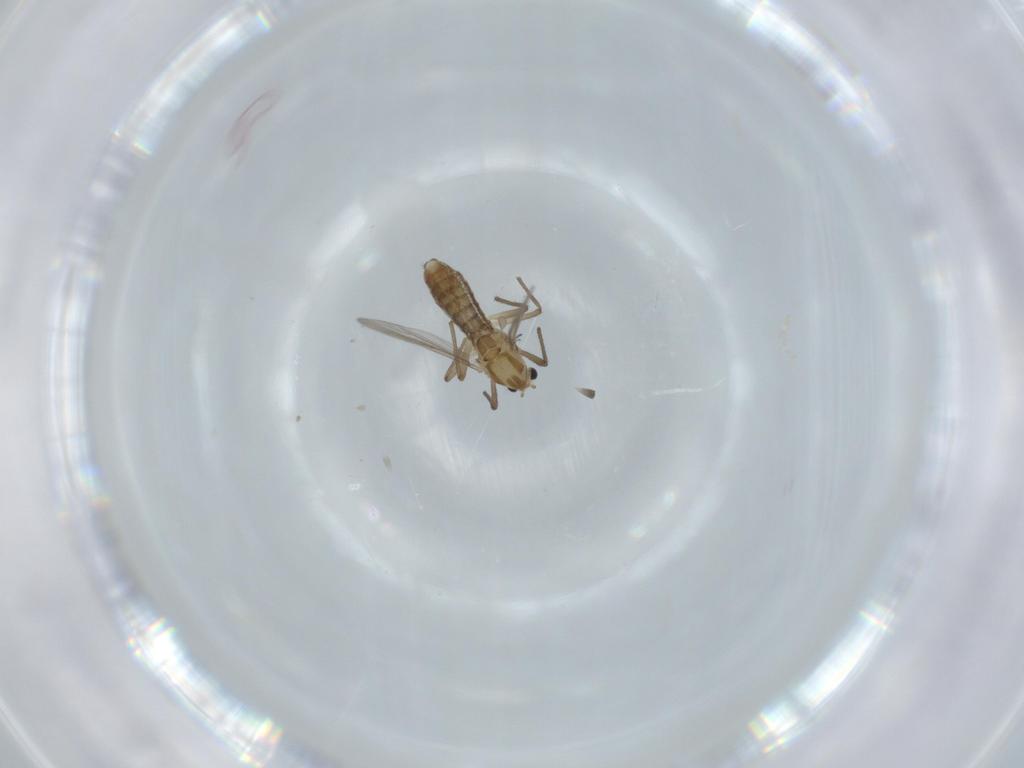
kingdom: Animalia
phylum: Arthropoda
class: Insecta
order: Diptera
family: Chironomidae
